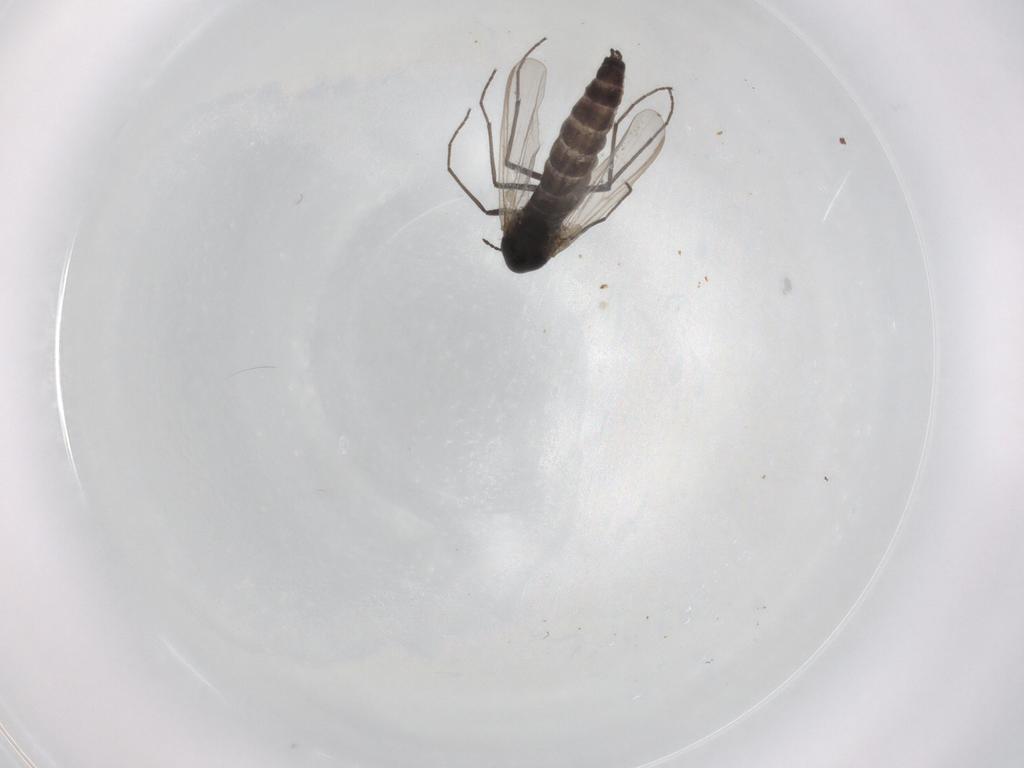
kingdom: Animalia
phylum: Arthropoda
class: Insecta
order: Diptera
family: Chironomidae
